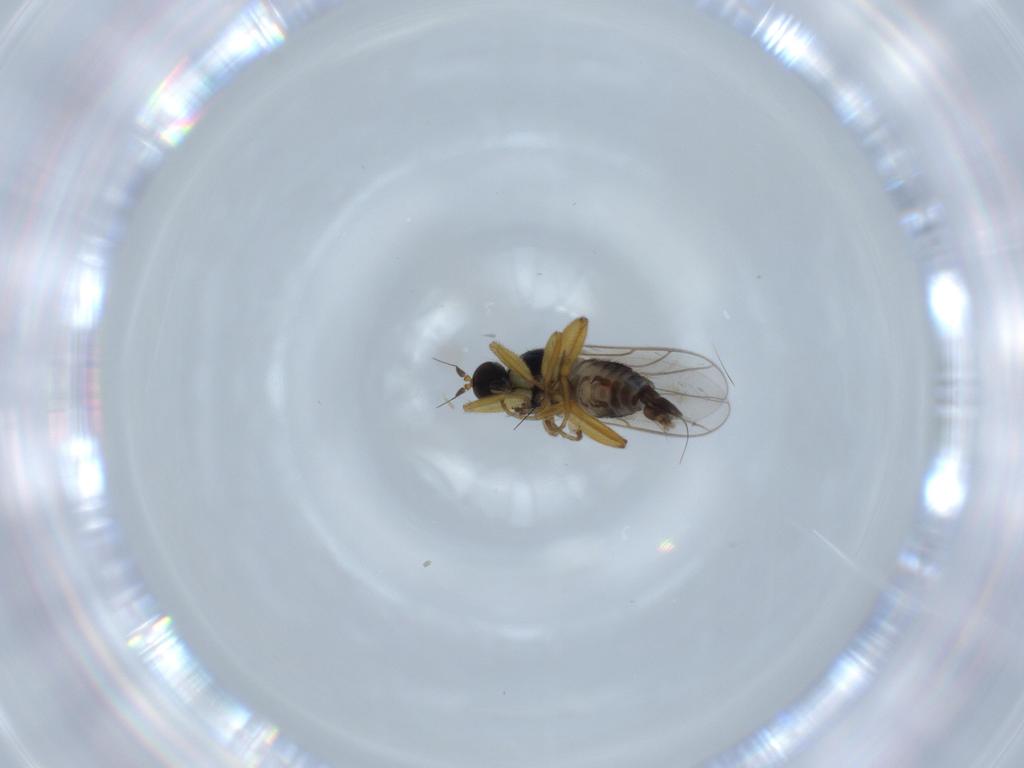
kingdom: Animalia
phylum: Arthropoda
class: Insecta
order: Diptera
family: Hybotidae
